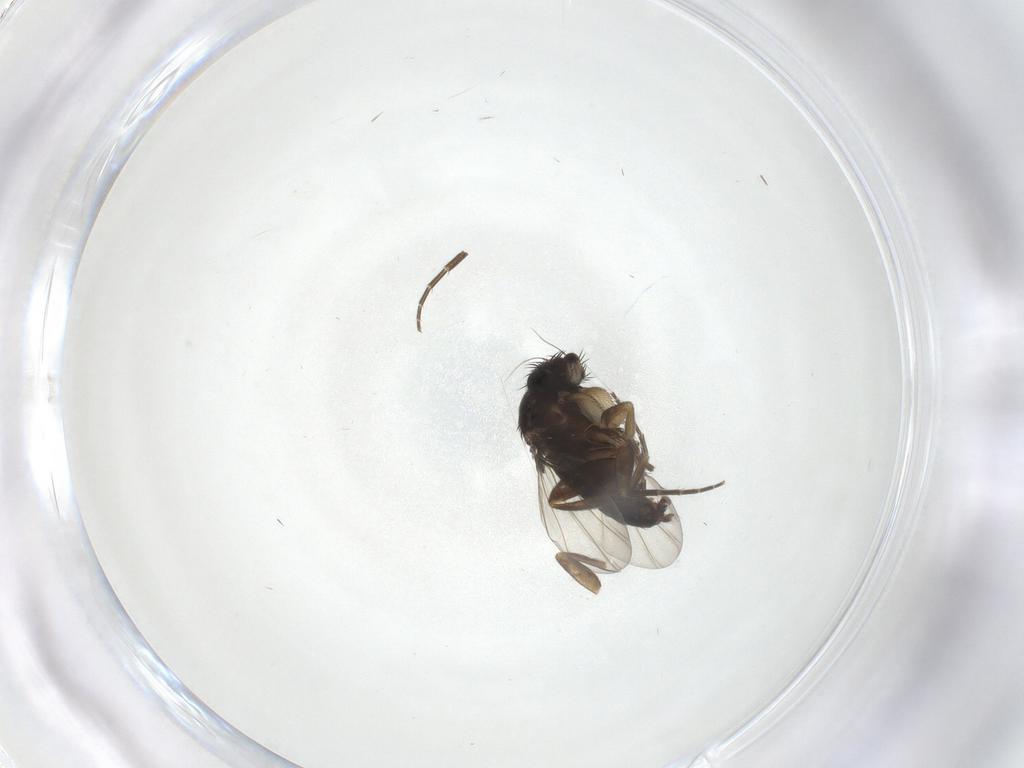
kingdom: Animalia
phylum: Arthropoda
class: Insecta
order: Diptera
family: Phoridae
